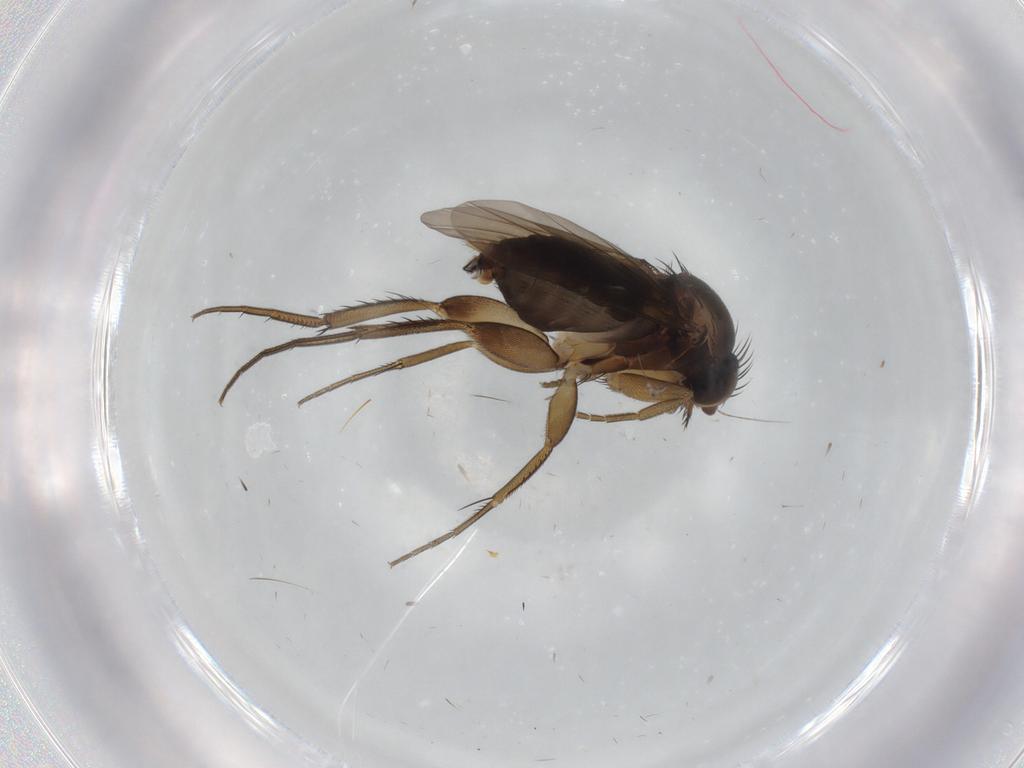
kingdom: Animalia
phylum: Arthropoda
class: Insecta
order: Diptera
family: Phoridae
